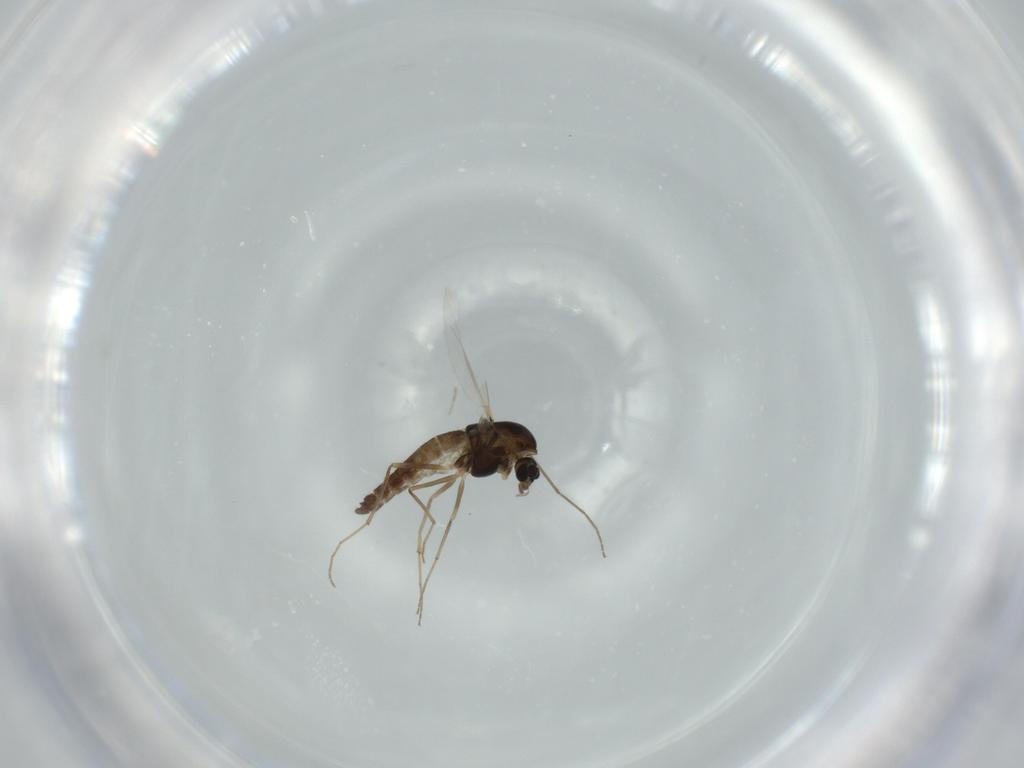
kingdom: Animalia
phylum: Arthropoda
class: Insecta
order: Diptera
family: Chironomidae
